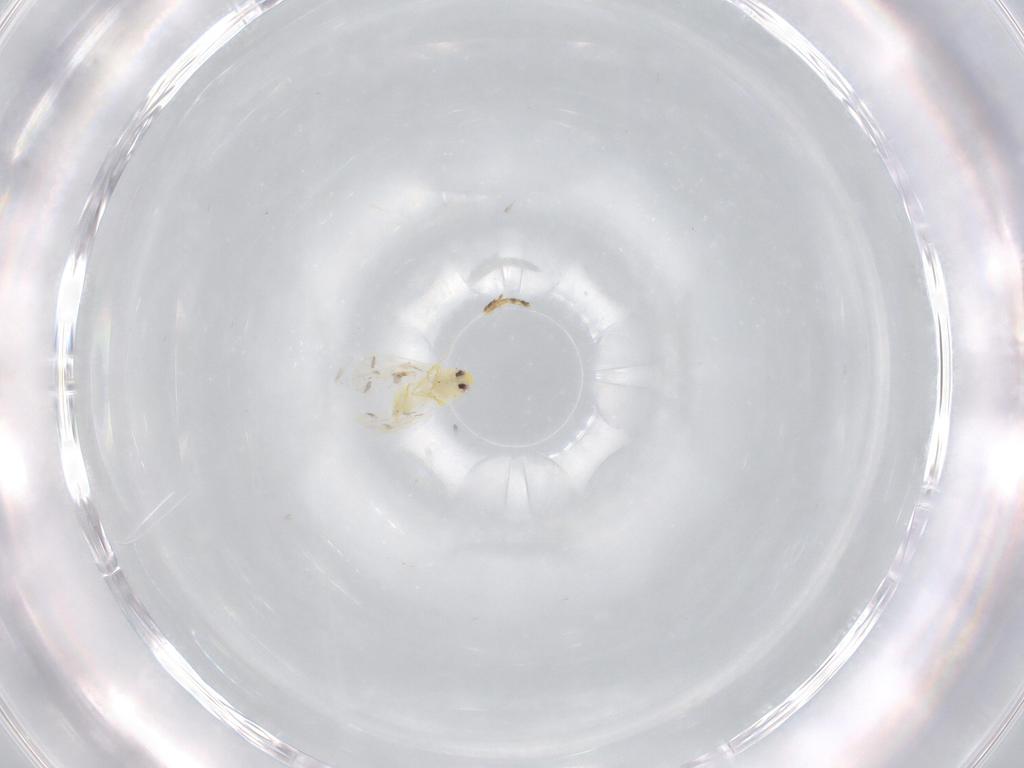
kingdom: Animalia
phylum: Arthropoda
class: Insecta
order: Hemiptera
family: Aleyrodidae
